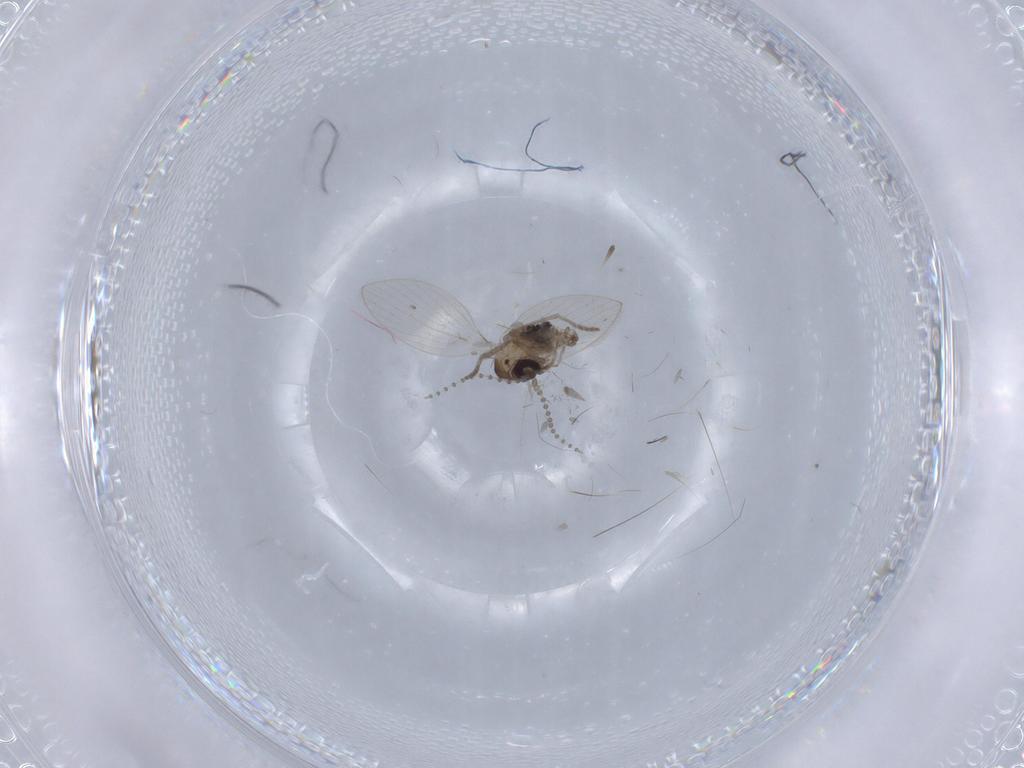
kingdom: Animalia
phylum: Arthropoda
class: Insecta
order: Diptera
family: Psychodidae
